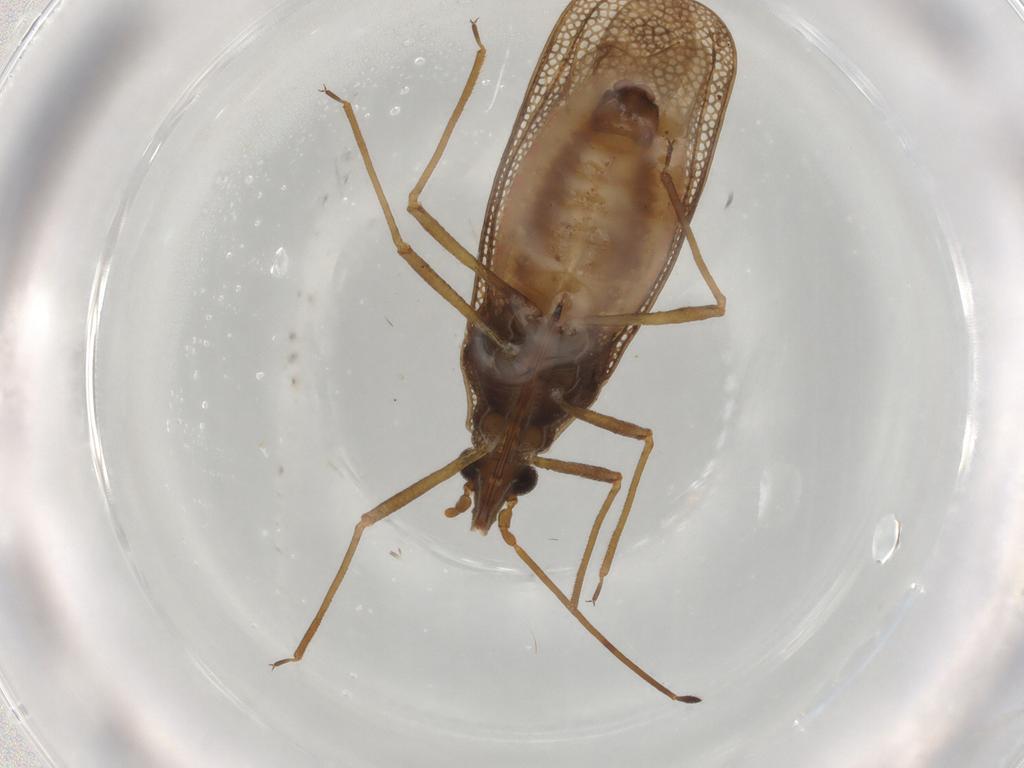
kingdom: Animalia
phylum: Arthropoda
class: Insecta
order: Hemiptera
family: Tingidae
